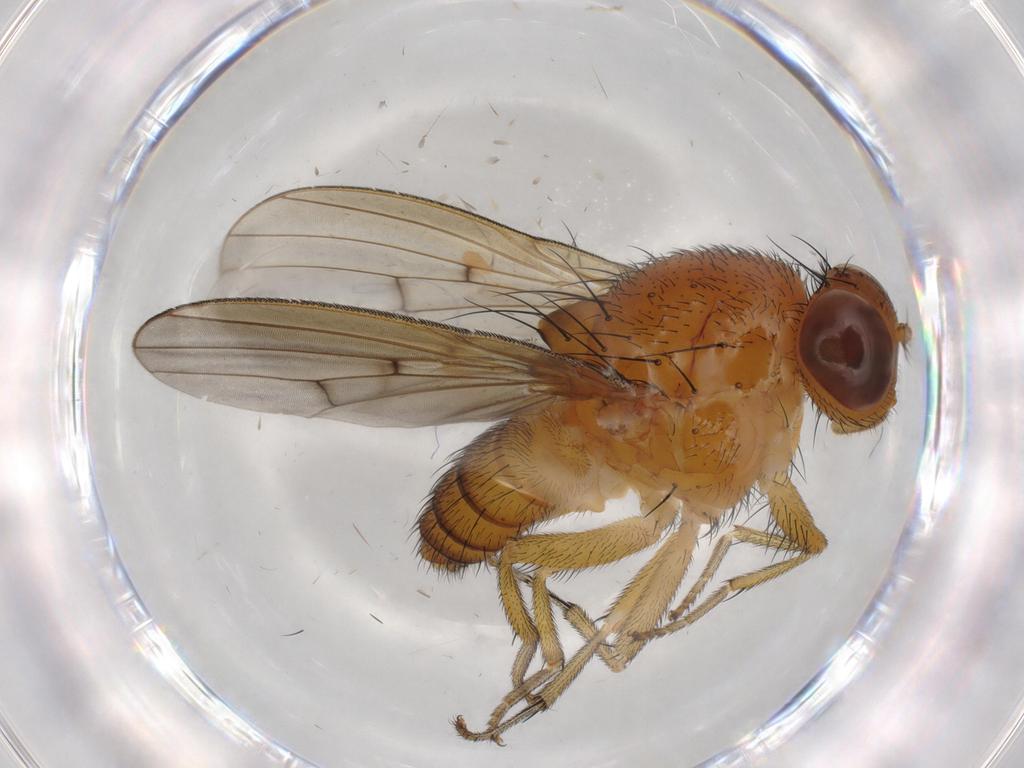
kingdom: Animalia
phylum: Arthropoda
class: Insecta
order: Diptera
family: Drosophilidae
